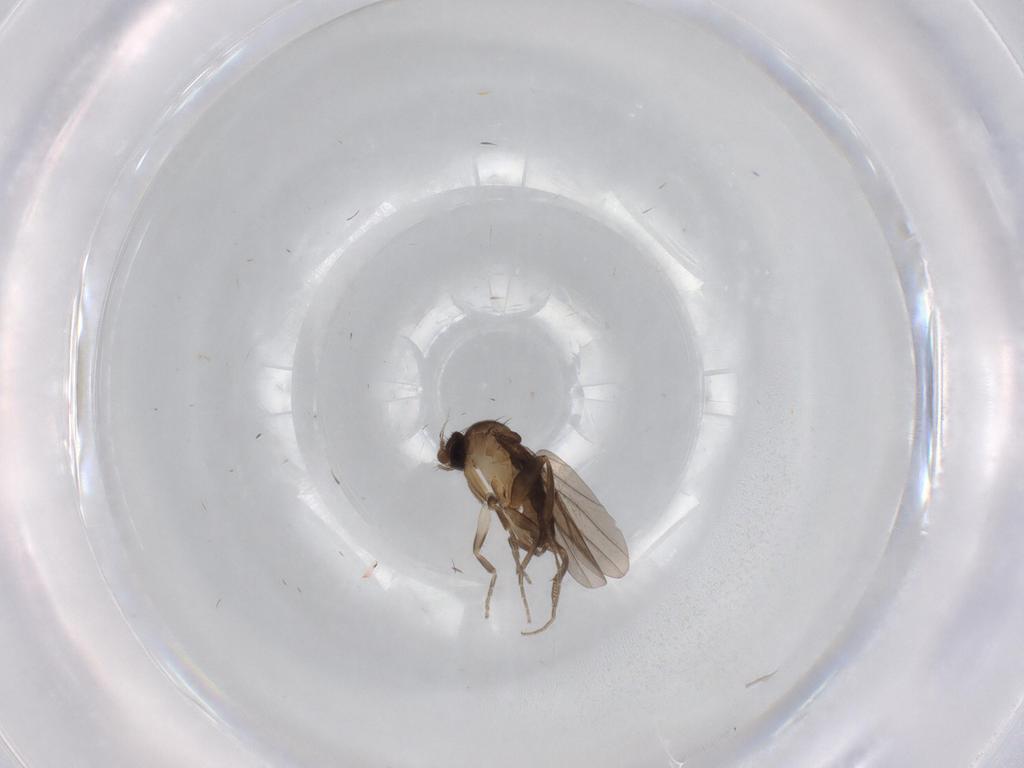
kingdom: Animalia
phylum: Arthropoda
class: Insecta
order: Diptera
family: Cecidomyiidae
